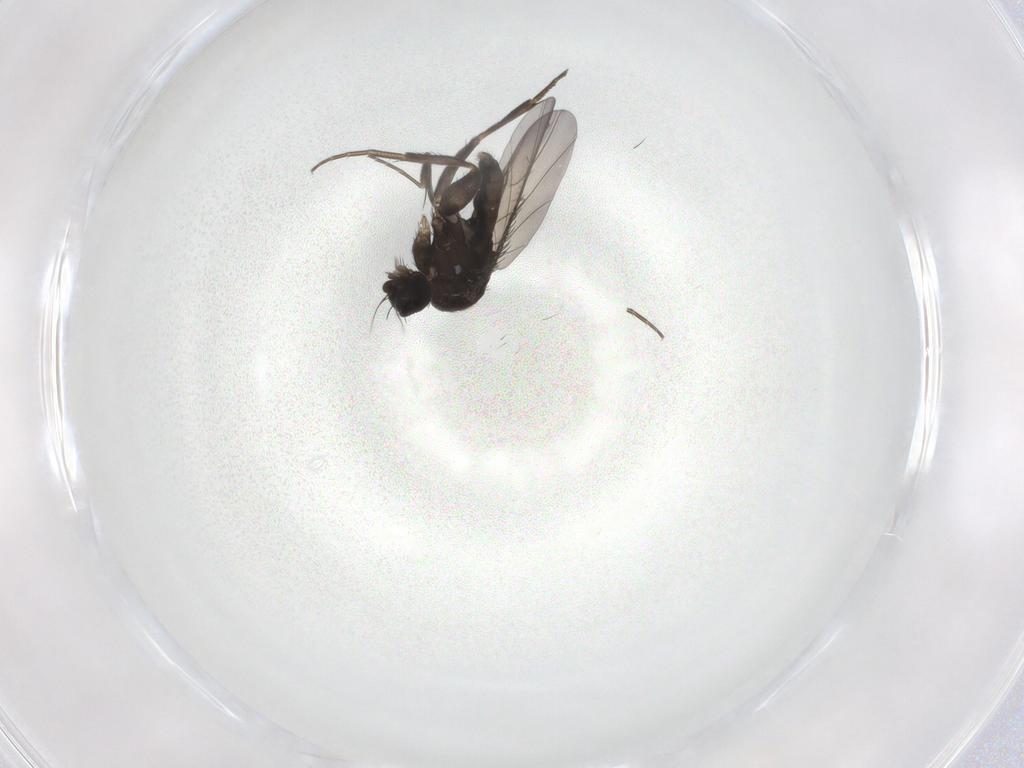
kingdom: Animalia
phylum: Arthropoda
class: Insecta
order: Diptera
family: Phoridae
